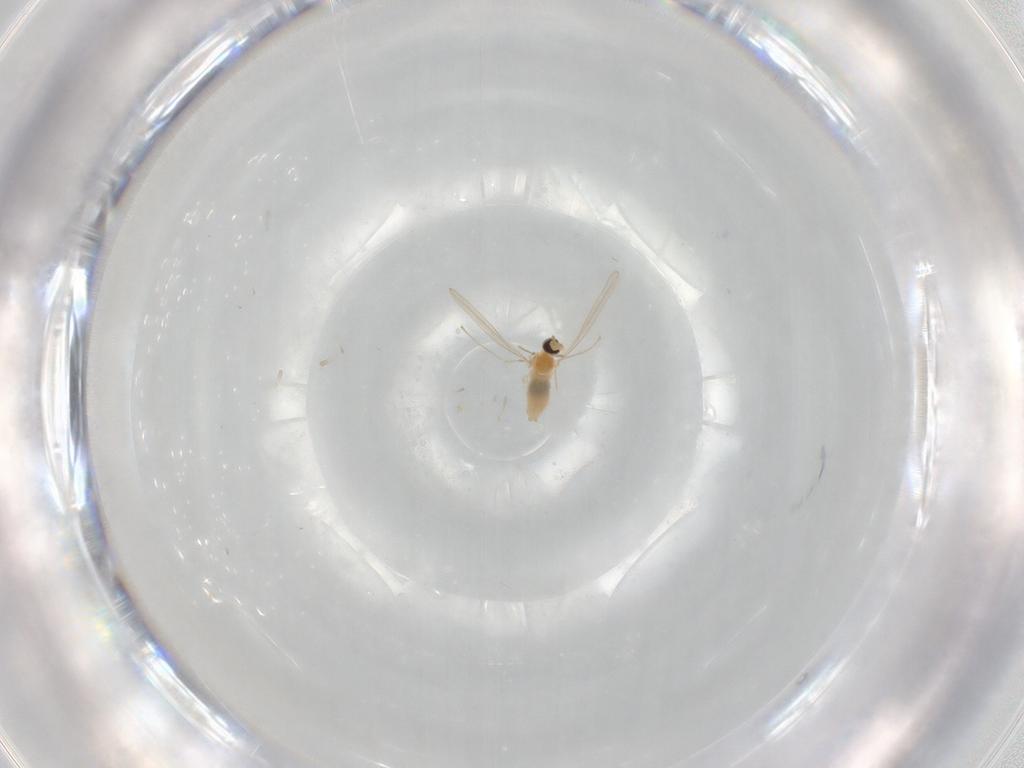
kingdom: Animalia
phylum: Arthropoda
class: Insecta
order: Diptera
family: Cecidomyiidae
